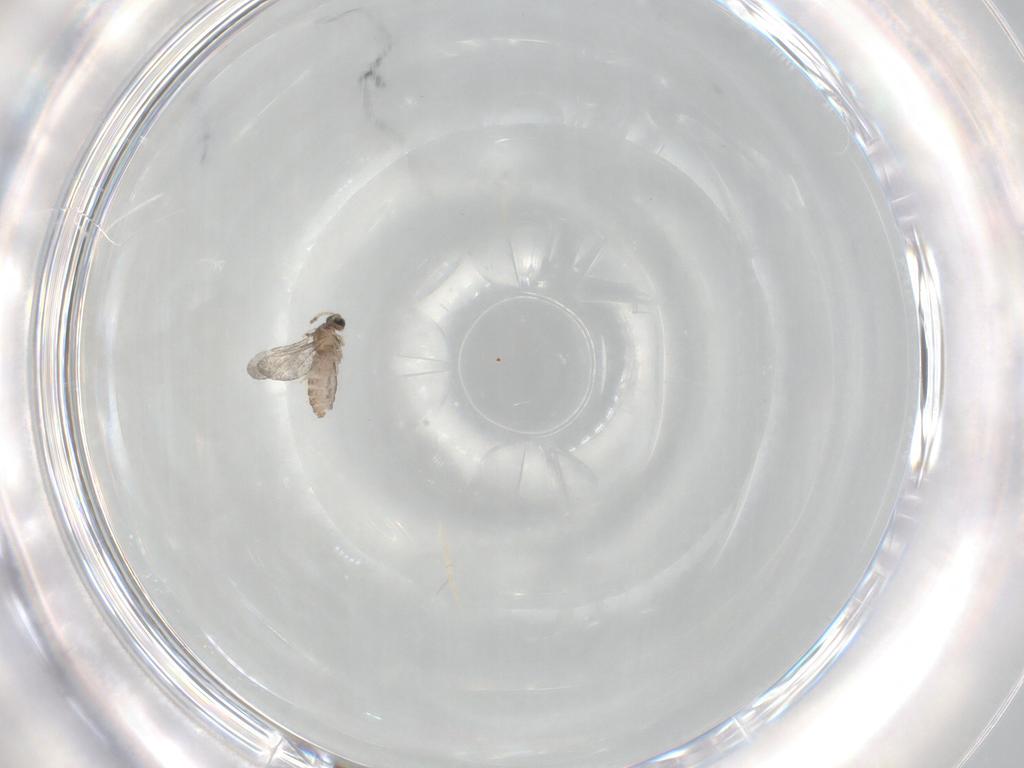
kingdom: Animalia
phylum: Arthropoda
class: Insecta
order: Diptera
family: Cecidomyiidae
